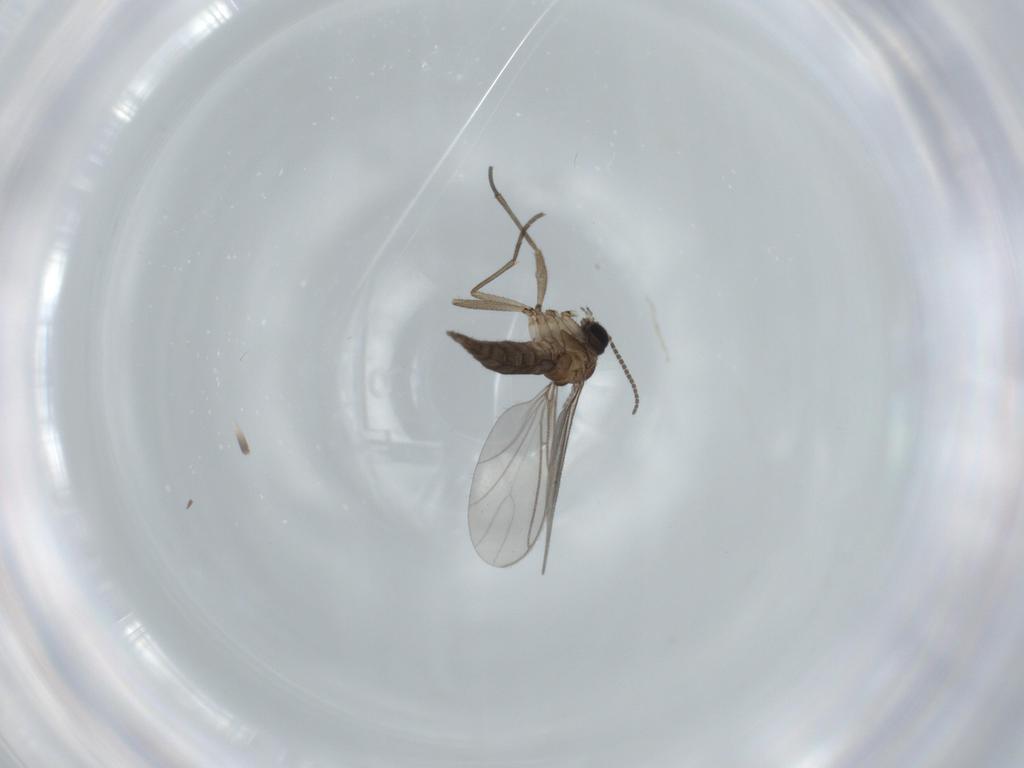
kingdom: Animalia
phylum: Arthropoda
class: Insecta
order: Diptera
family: Sciaridae
